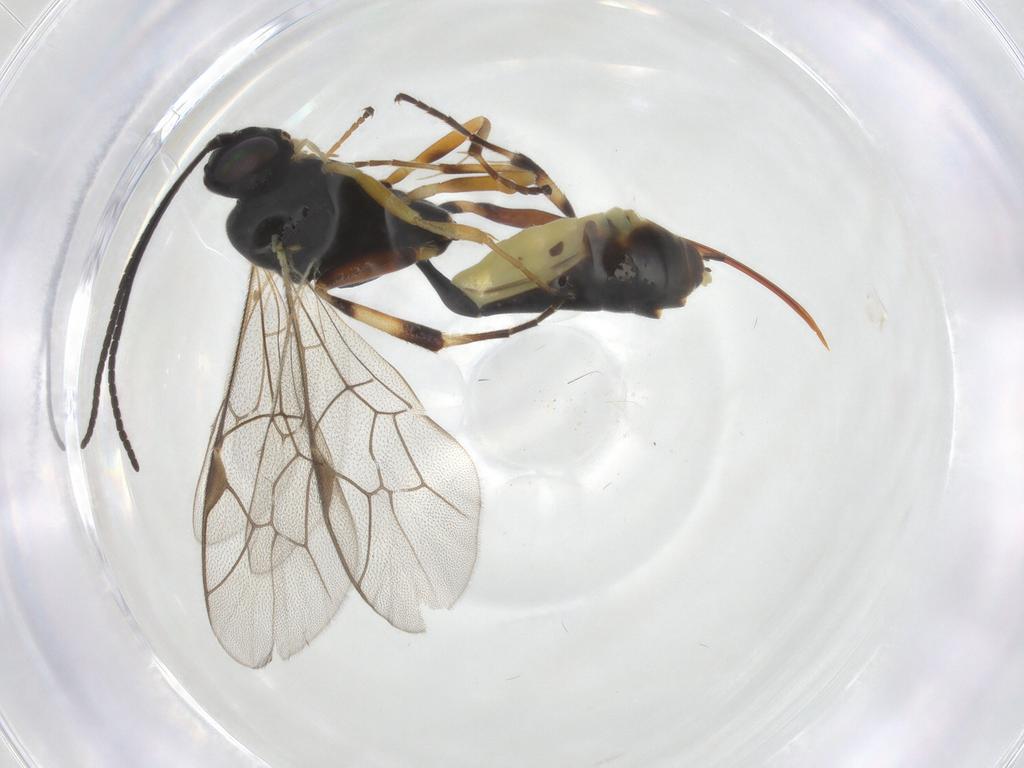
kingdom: Animalia
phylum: Arthropoda
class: Insecta
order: Hymenoptera
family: Ichneumonidae
